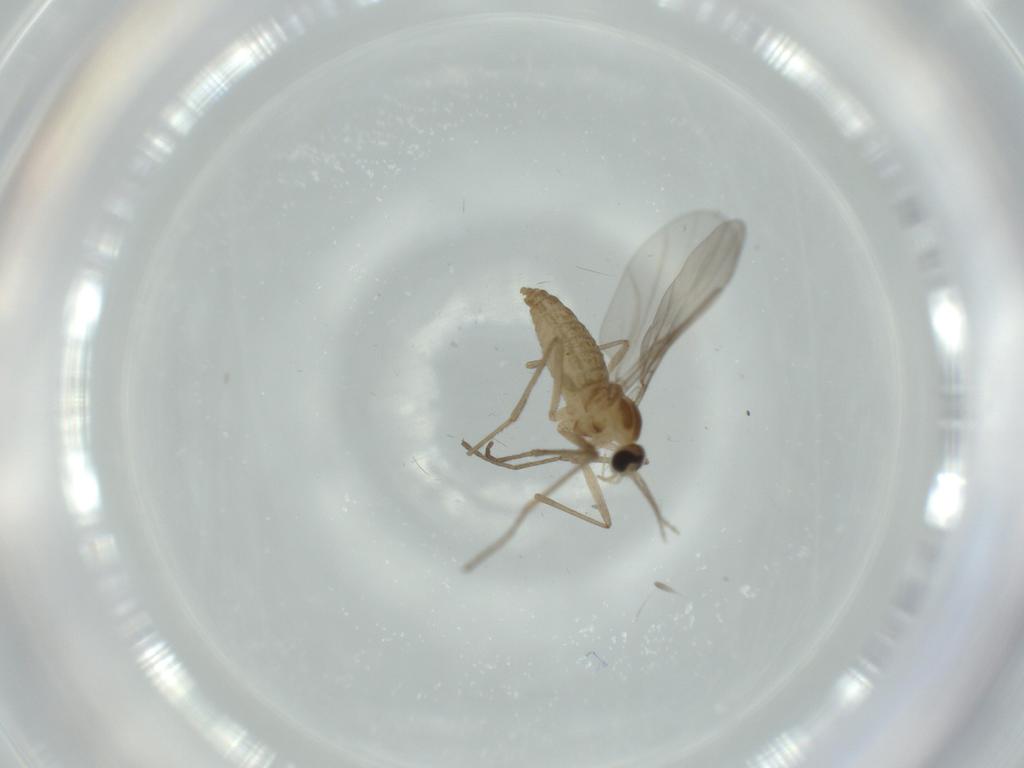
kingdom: Animalia
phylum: Arthropoda
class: Insecta
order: Diptera
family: Cecidomyiidae
